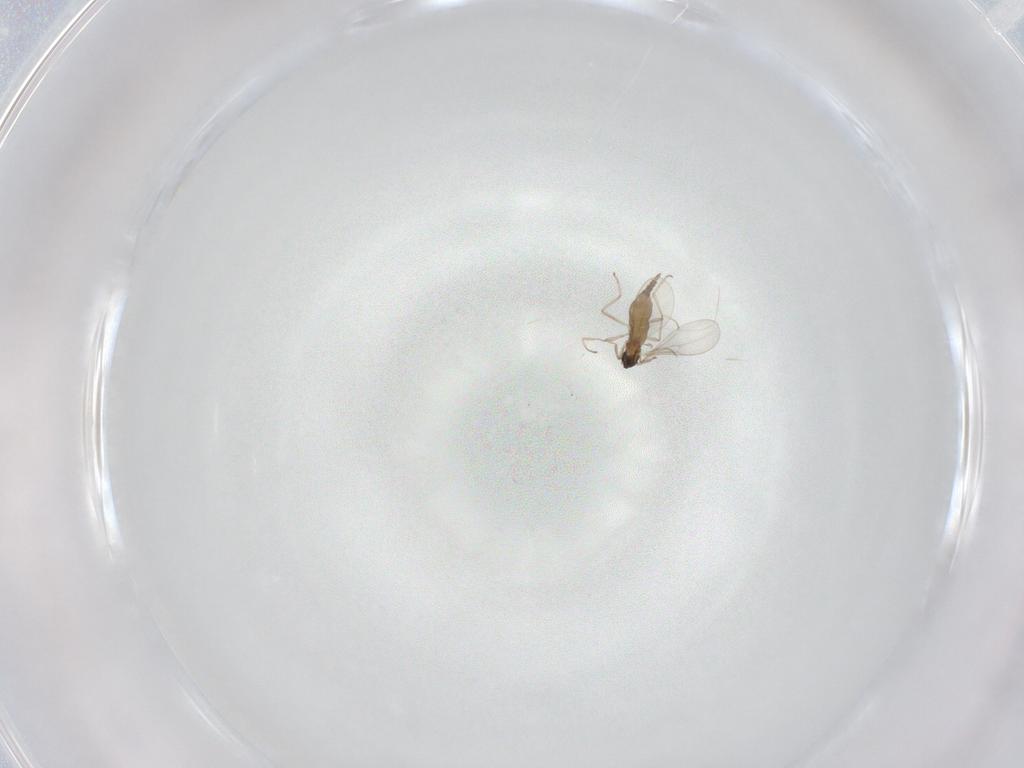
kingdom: Animalia
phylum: Arthropoda
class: Insecta
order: Diptera
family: Cecidomyiidae
